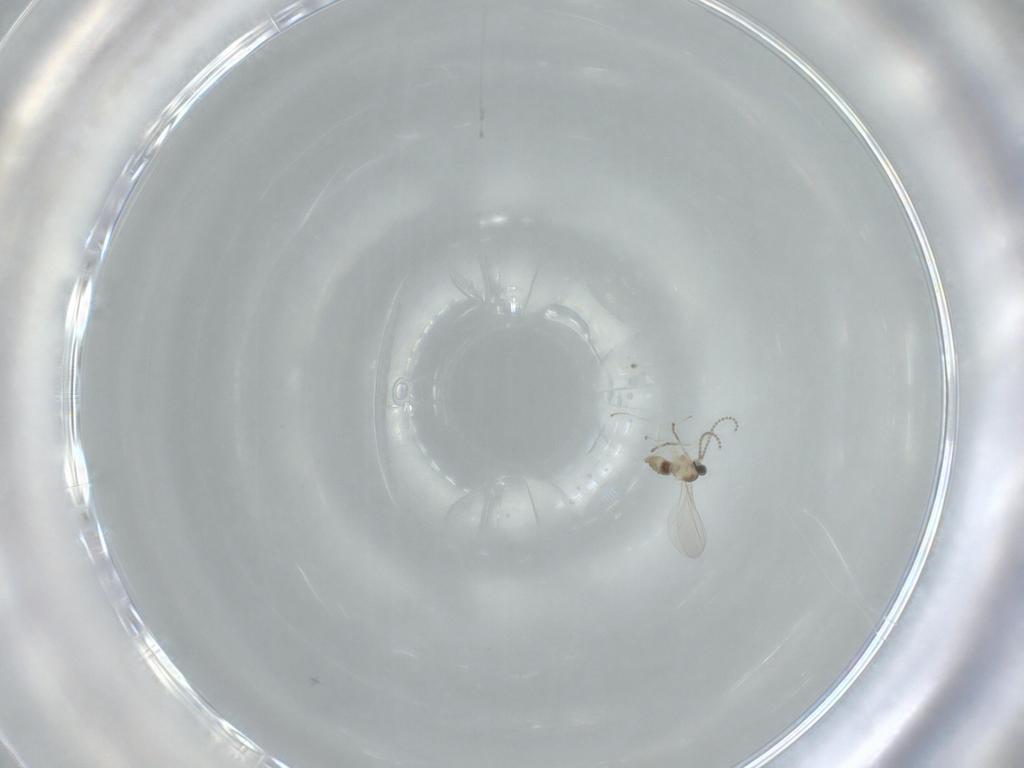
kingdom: Animalia
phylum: Arthropoda
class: Insecta
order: Diptera
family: Cecidomyiidae
